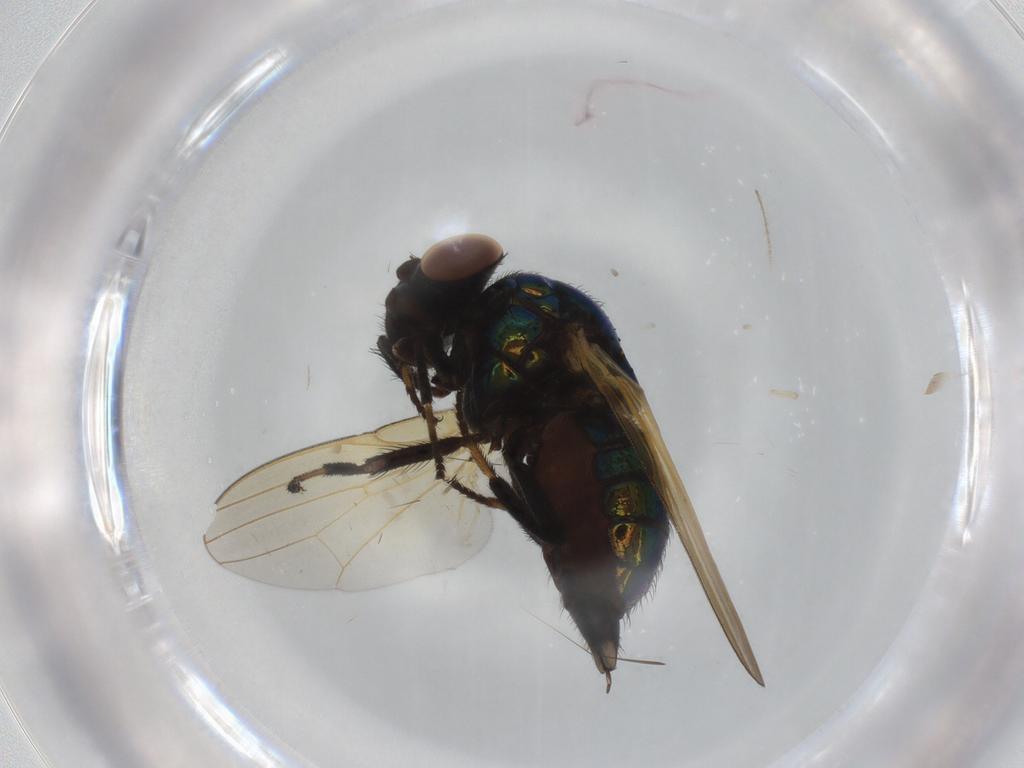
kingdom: Animalia
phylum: Arthropoda
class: Insecta
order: Diptera
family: Lonchaeidae
